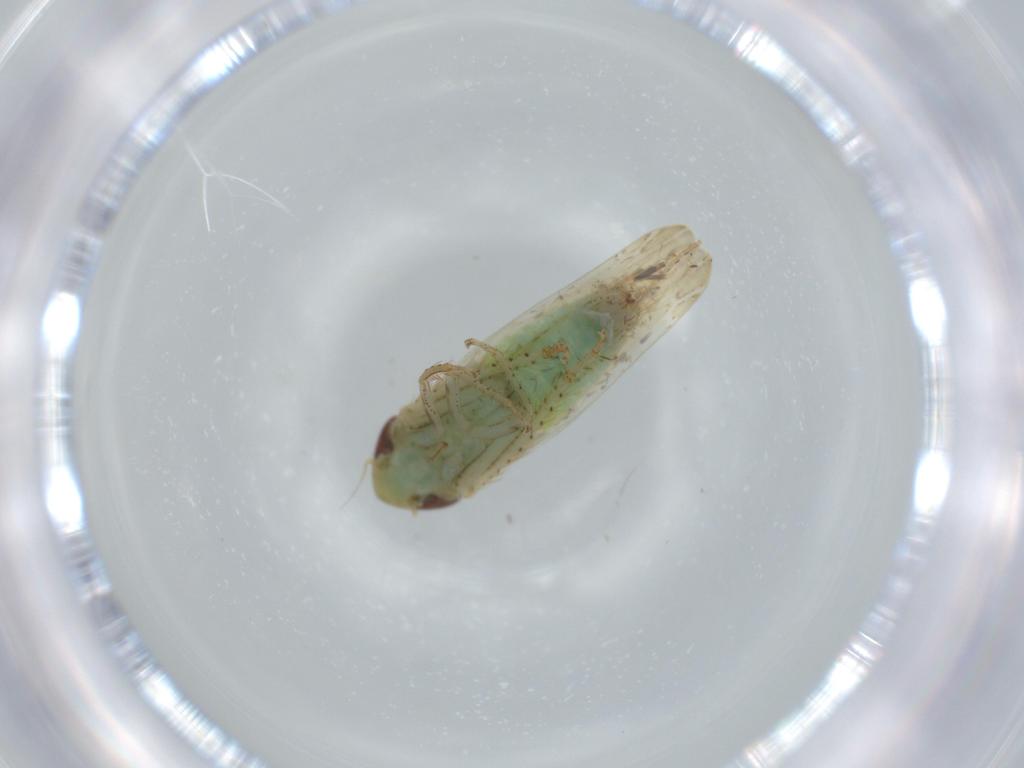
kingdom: Animalia
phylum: Arthropoda
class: Insecta
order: Hemiptera
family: Cicadellidae
